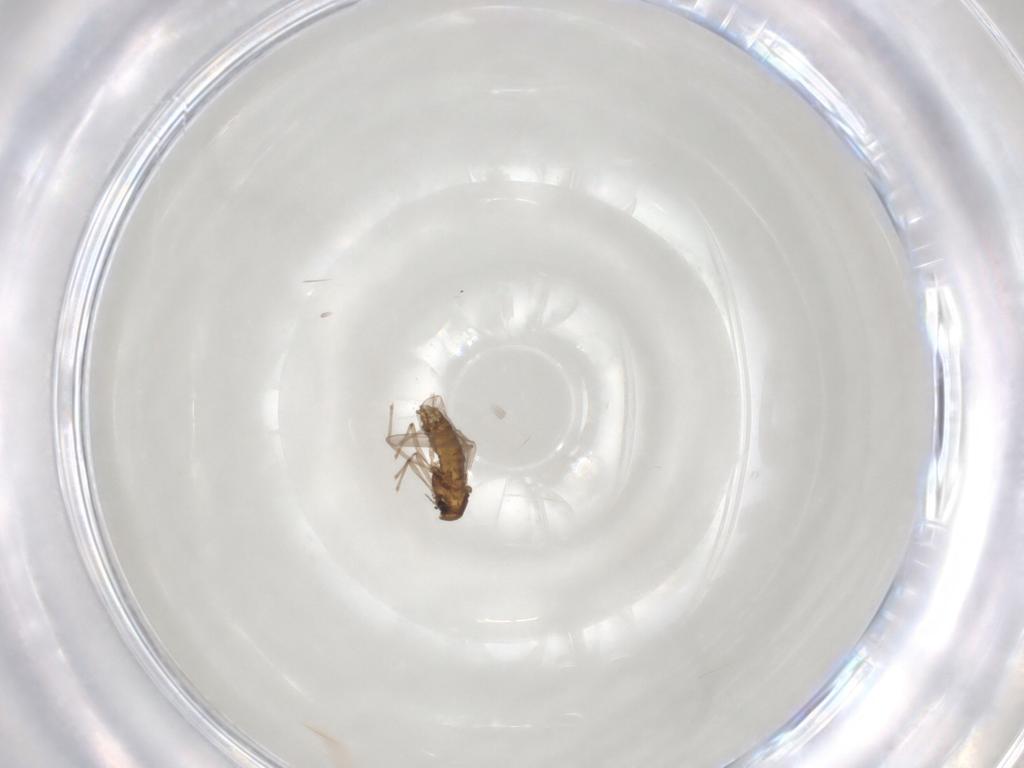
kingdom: Animalia
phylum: Arthropoda
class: Insecta
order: Diptera
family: Chironomidae
